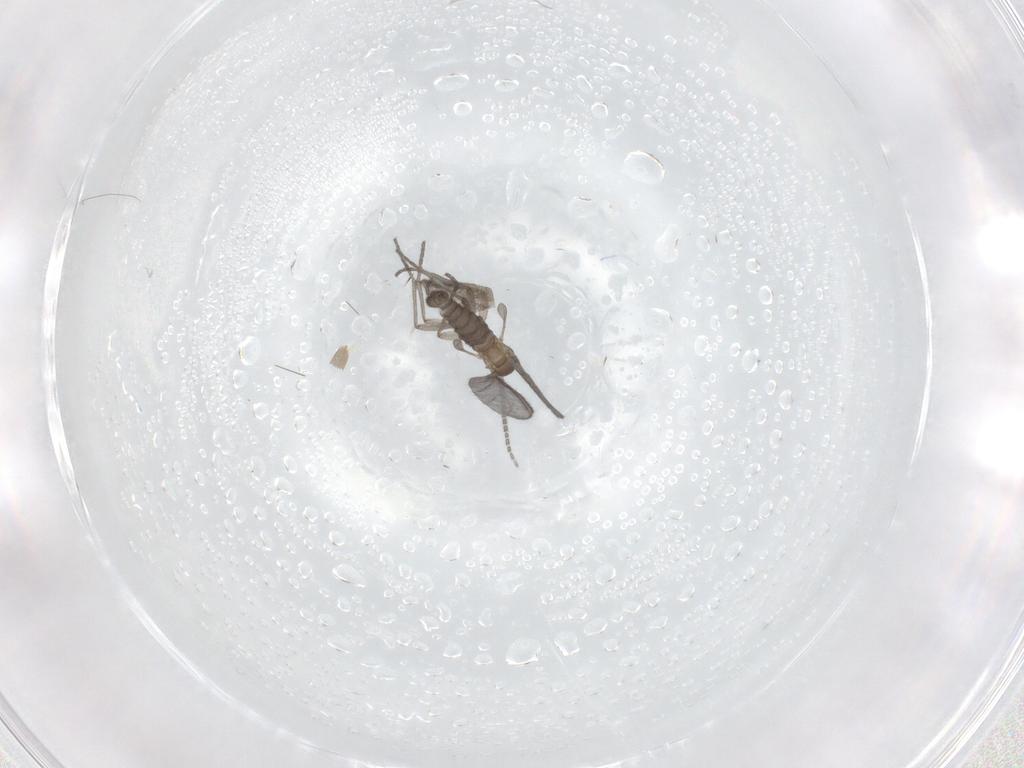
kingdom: Animalia
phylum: Arthropoda
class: Insecta
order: Diptera
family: Sciaridae
